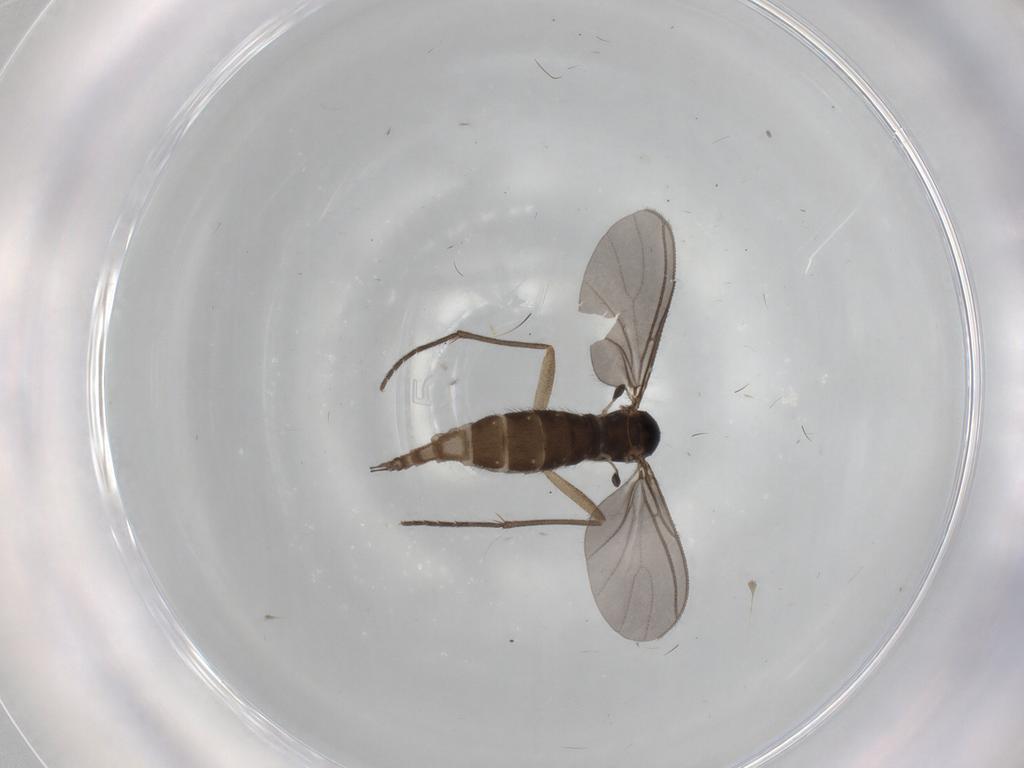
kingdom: Animalia
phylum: Arthropoda
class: Insecta
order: Diptera
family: Sciaridae
